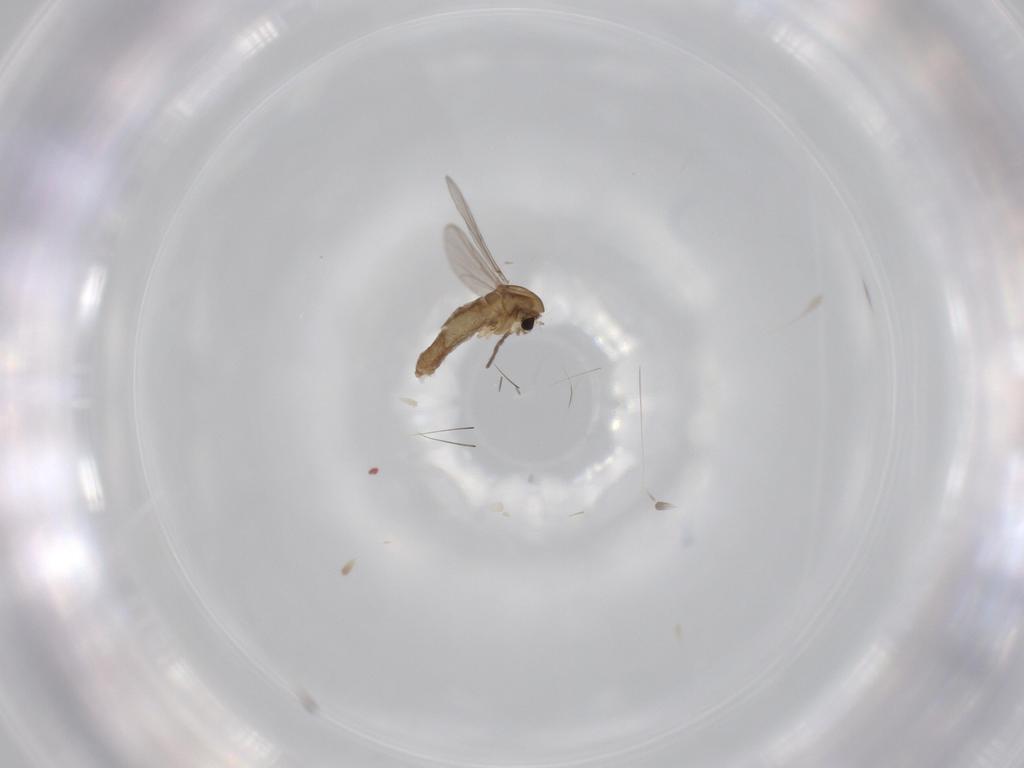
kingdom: Animalia
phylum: Arthropoda
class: Insecta
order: Diptera
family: Chironomidae
